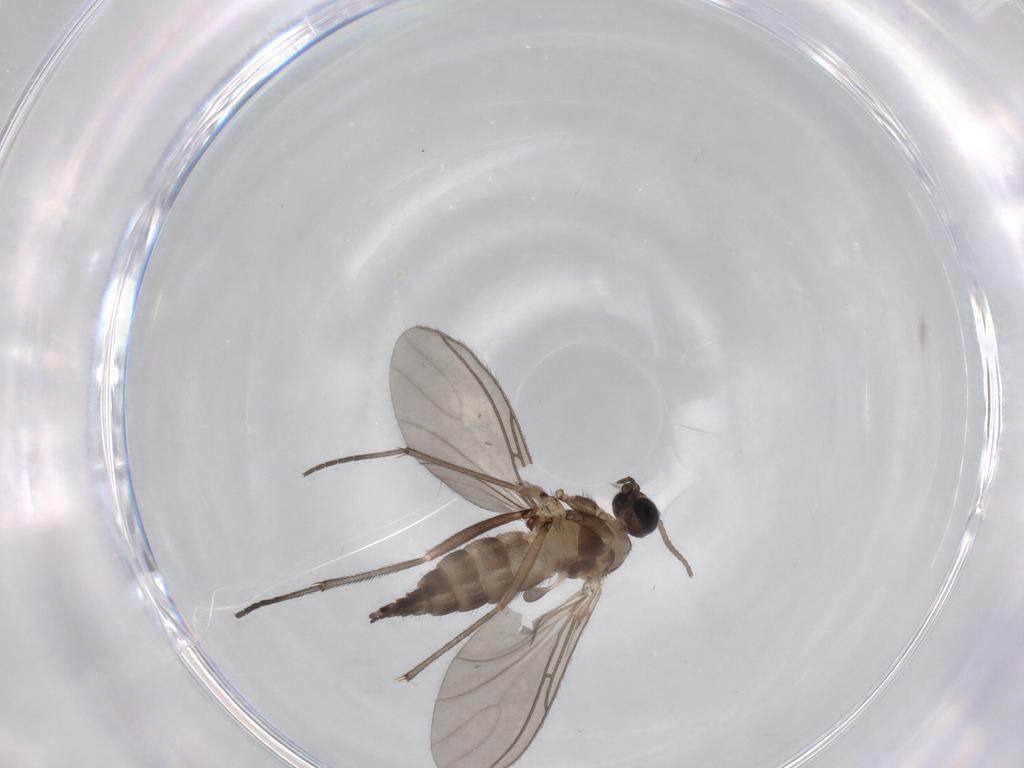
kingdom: Animalia
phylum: Arthropoda
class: Insecta
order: Diptera
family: Sciaridae
